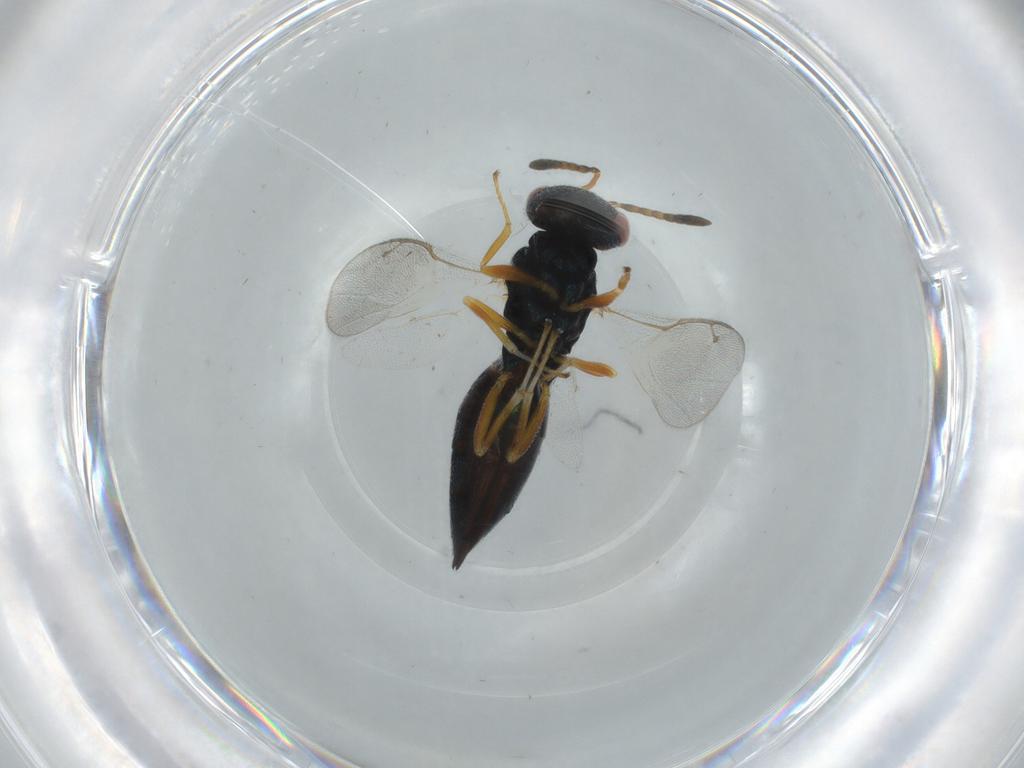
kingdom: Animalia
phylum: Arthropoda
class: Insecta
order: Hymenoptera
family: Pteromalidae
